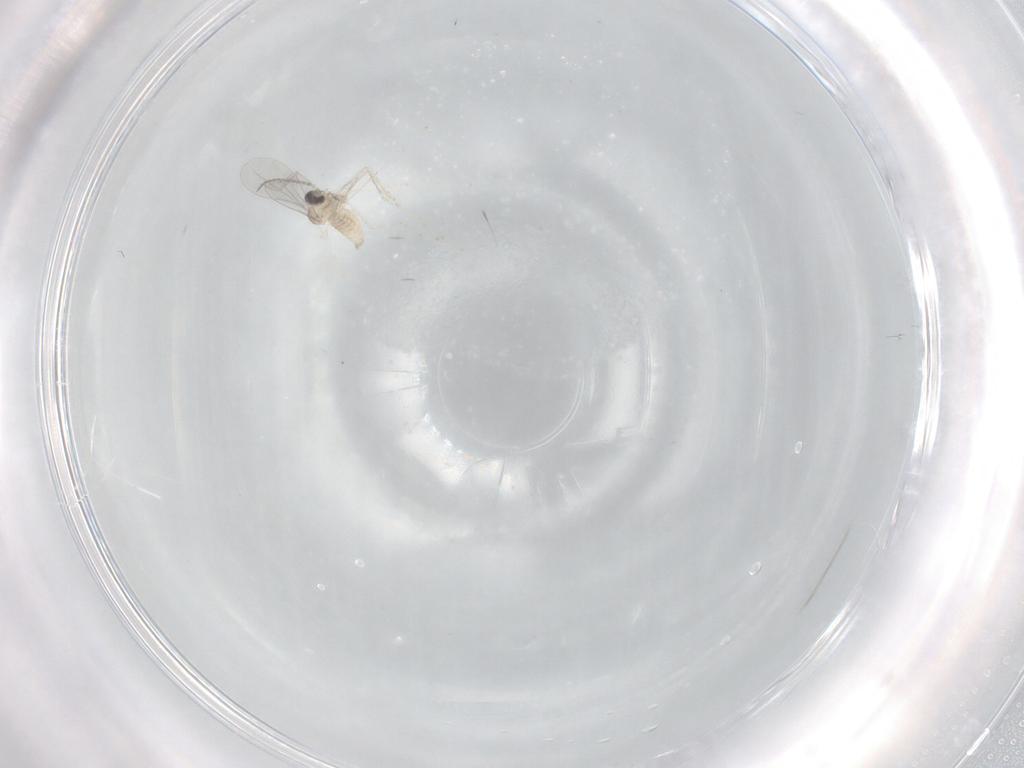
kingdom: Animalia
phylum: Arthropoda
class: Insecta
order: Diptera
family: Cecidomyiidae
